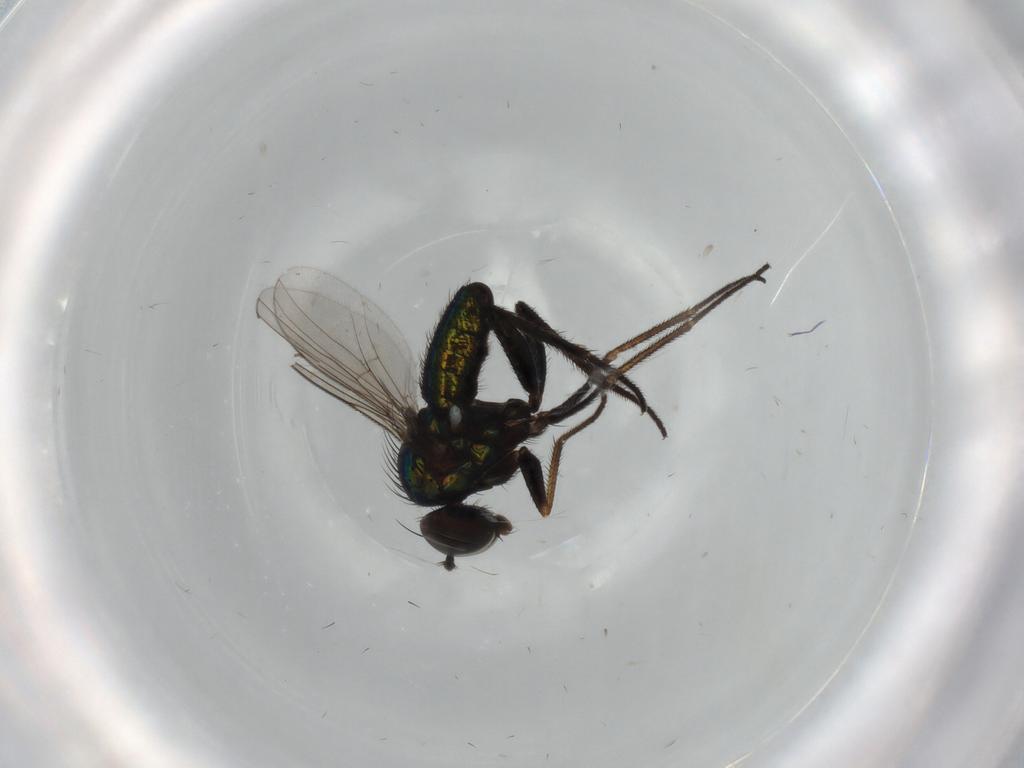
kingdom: Animalia
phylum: Arthropoda
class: Insecta
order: Diptera
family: Dolichopodidae
